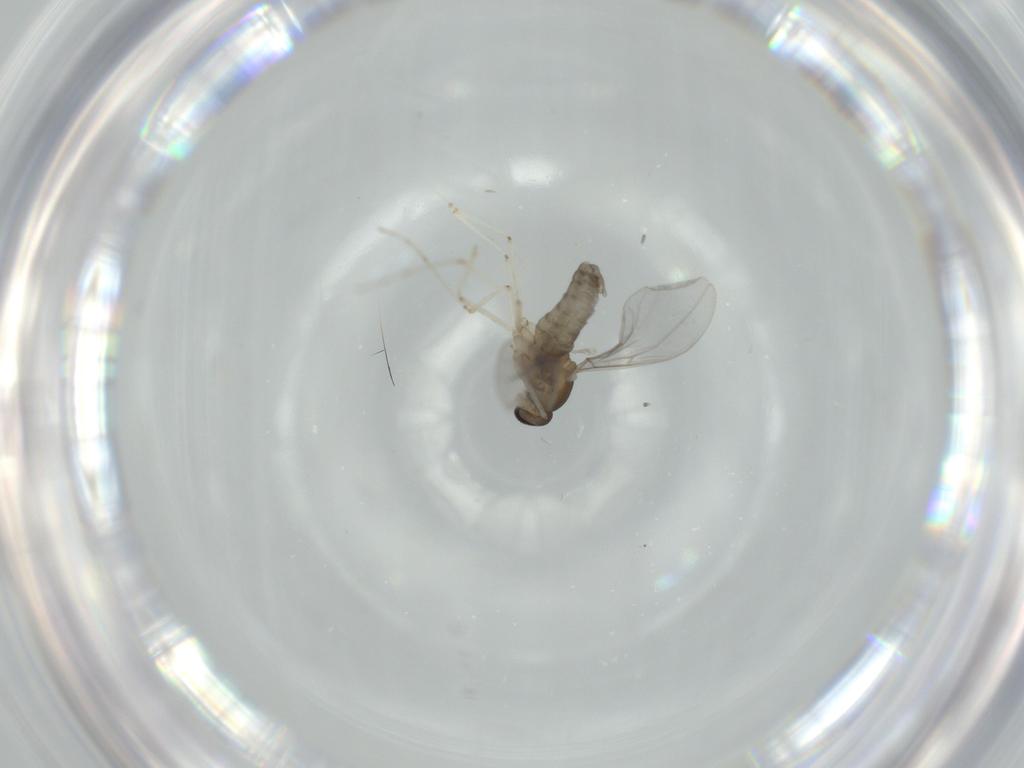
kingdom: Animalia
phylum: Arthropoda
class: Insecta
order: Diptera
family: Cecidomyiidae
